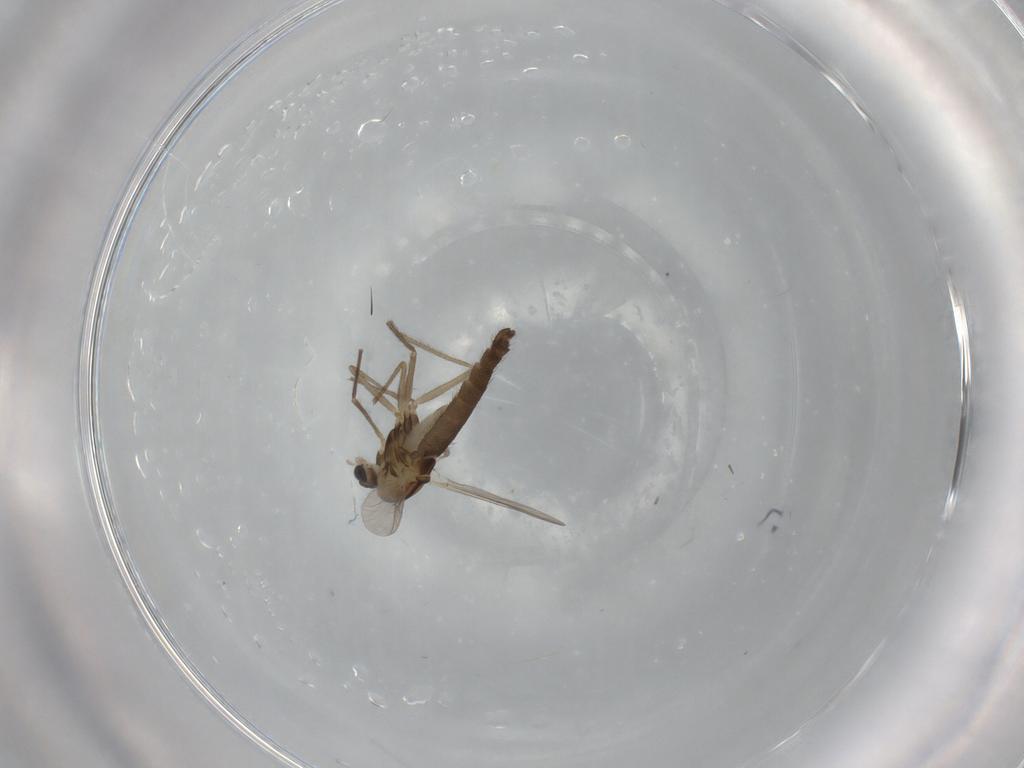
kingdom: Animalia
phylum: Arthropoda
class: Insecta
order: Diptera
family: Chironomidae
